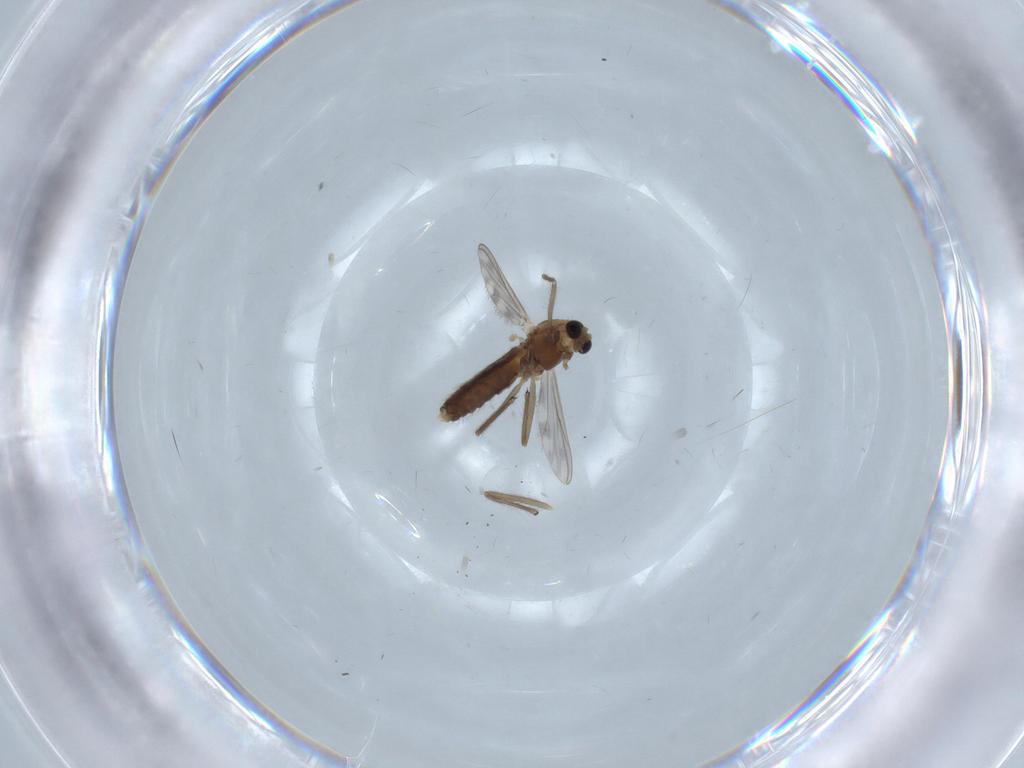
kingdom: Animalia
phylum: Arthropoda
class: Insecta
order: Diptera
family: Chironomidae
